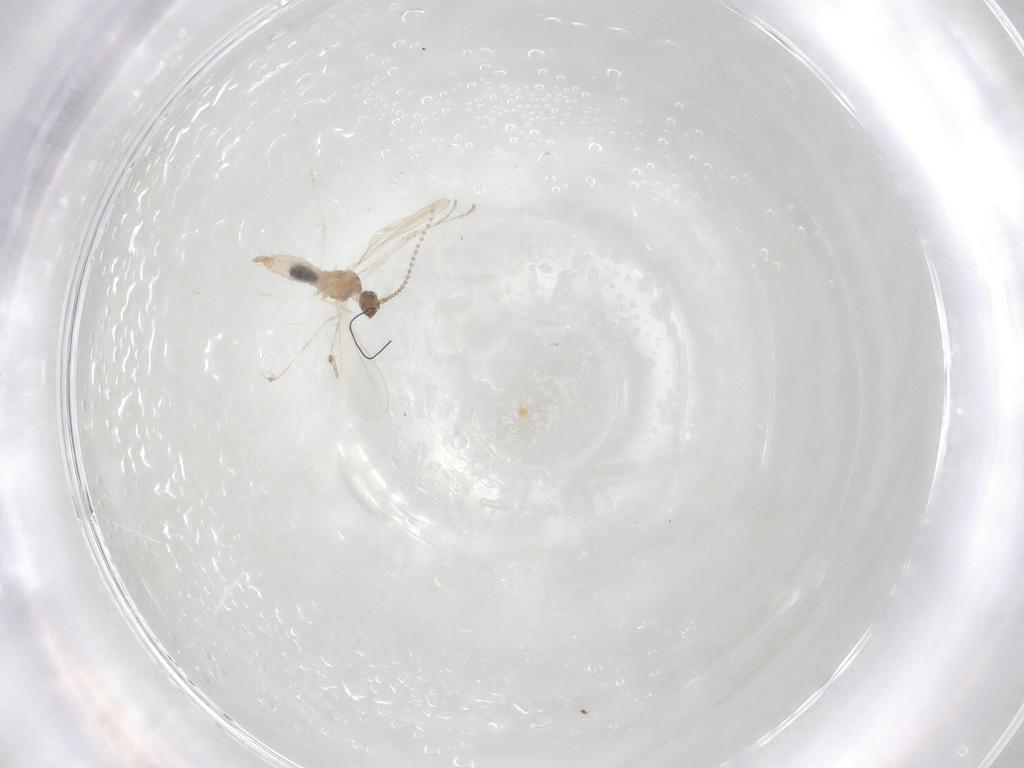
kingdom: Animalia
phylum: Arthropoda
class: Insecta
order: Diptera
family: Cecidomyiidae
